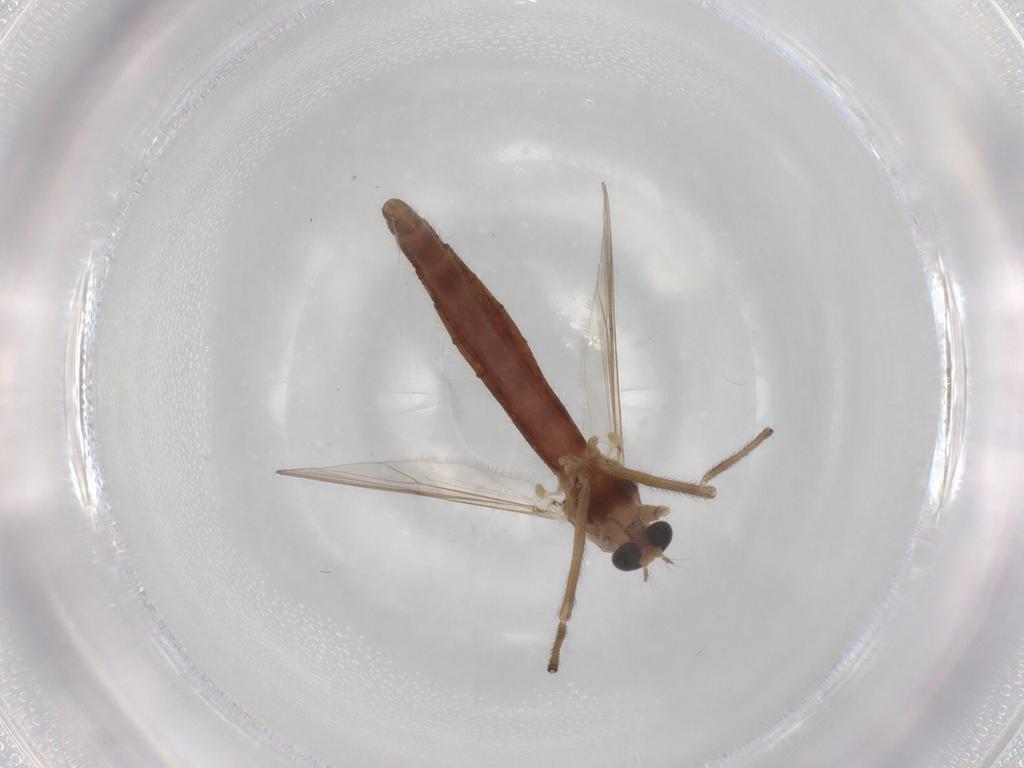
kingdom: Animalia
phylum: Arthropoda
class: Insecta
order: Diptera
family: Chironomidae
